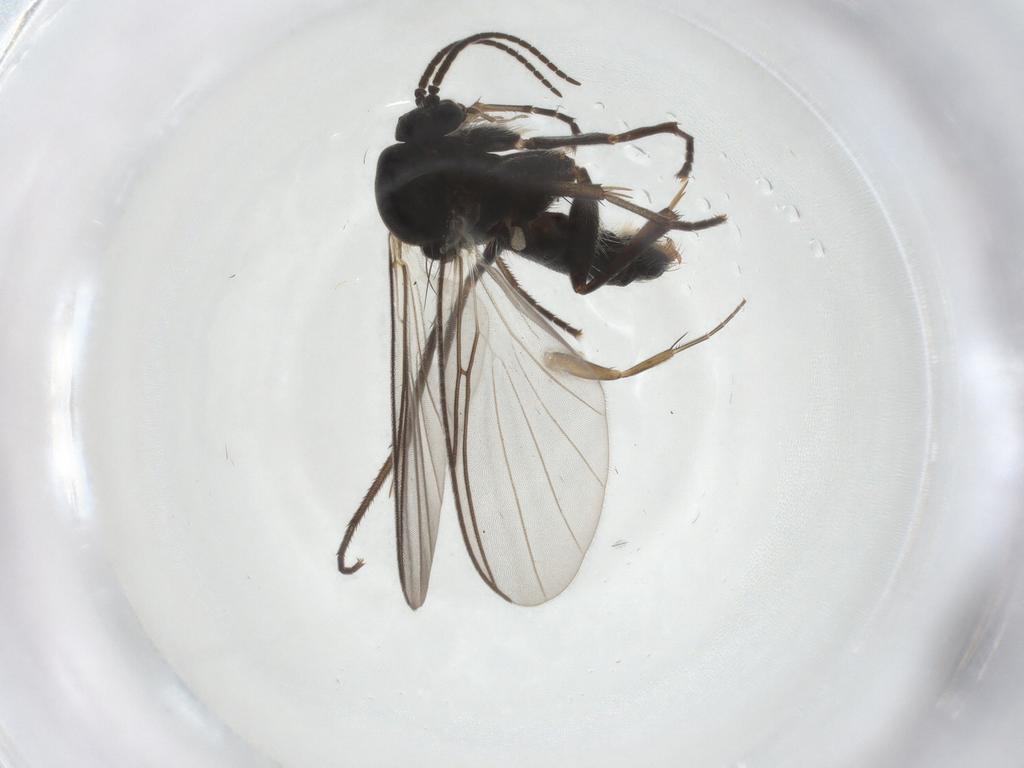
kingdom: Animalia
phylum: Arthropoda
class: Insecta
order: Diptera
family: Mycetophilidae
